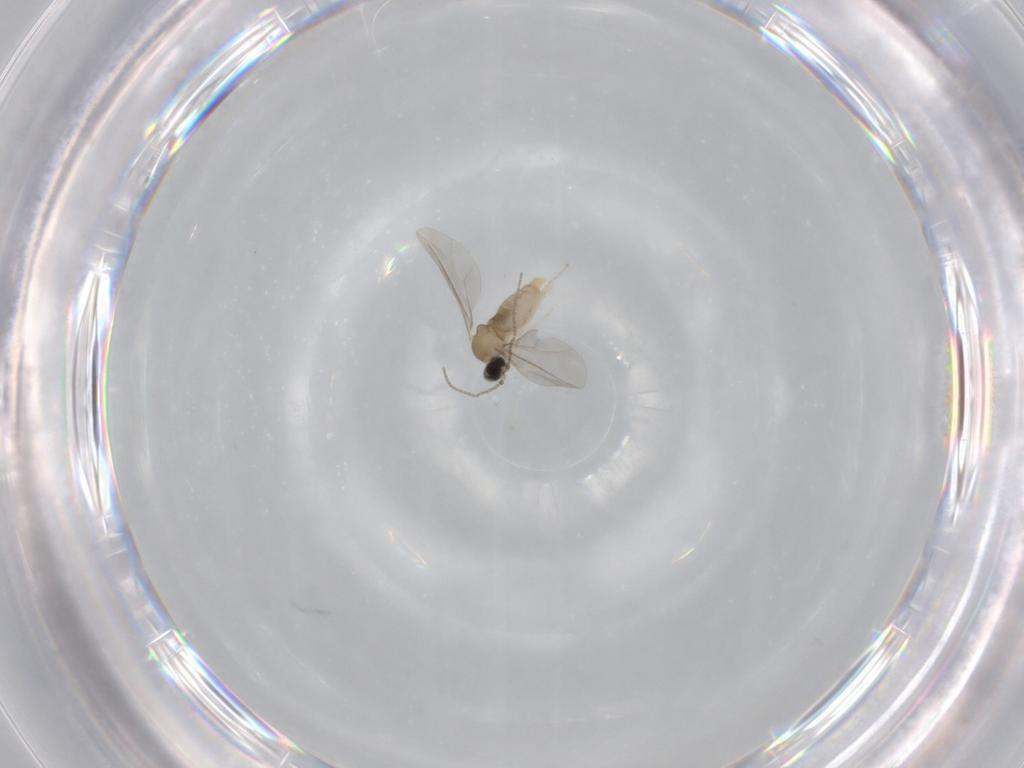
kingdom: Animalia
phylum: Arthropoda
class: Insecta
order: Diptera
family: Cecidomyiidae
